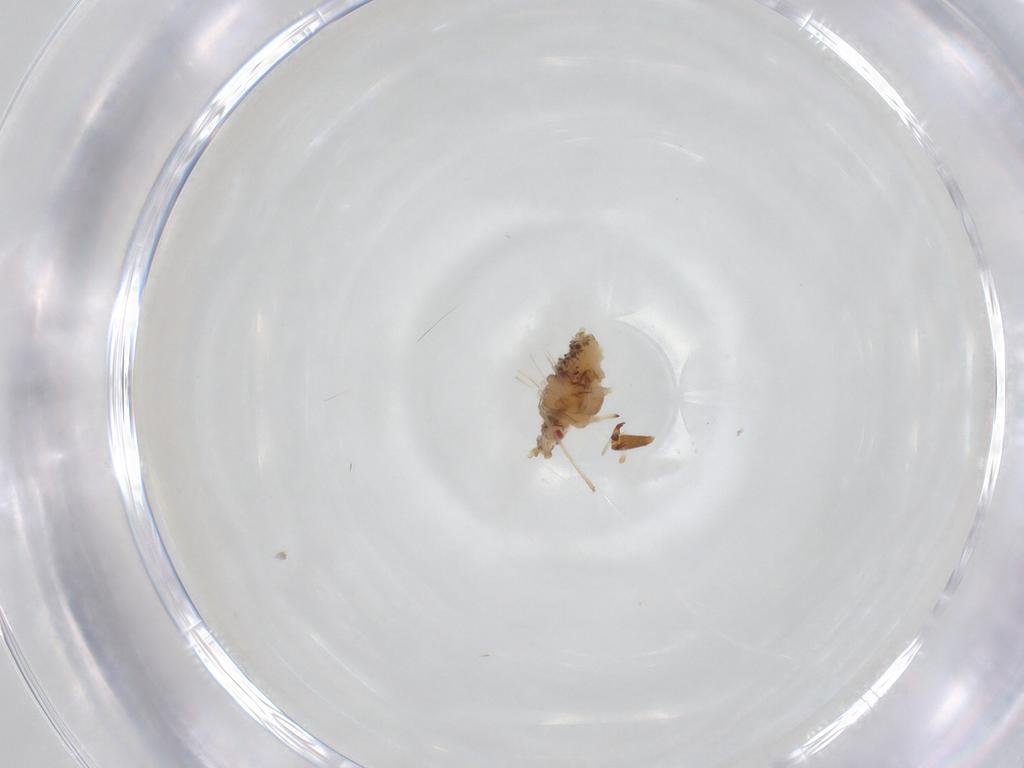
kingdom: Animalia
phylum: Arthropoda
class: Insecta
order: Hemiptera
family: Aphididae
